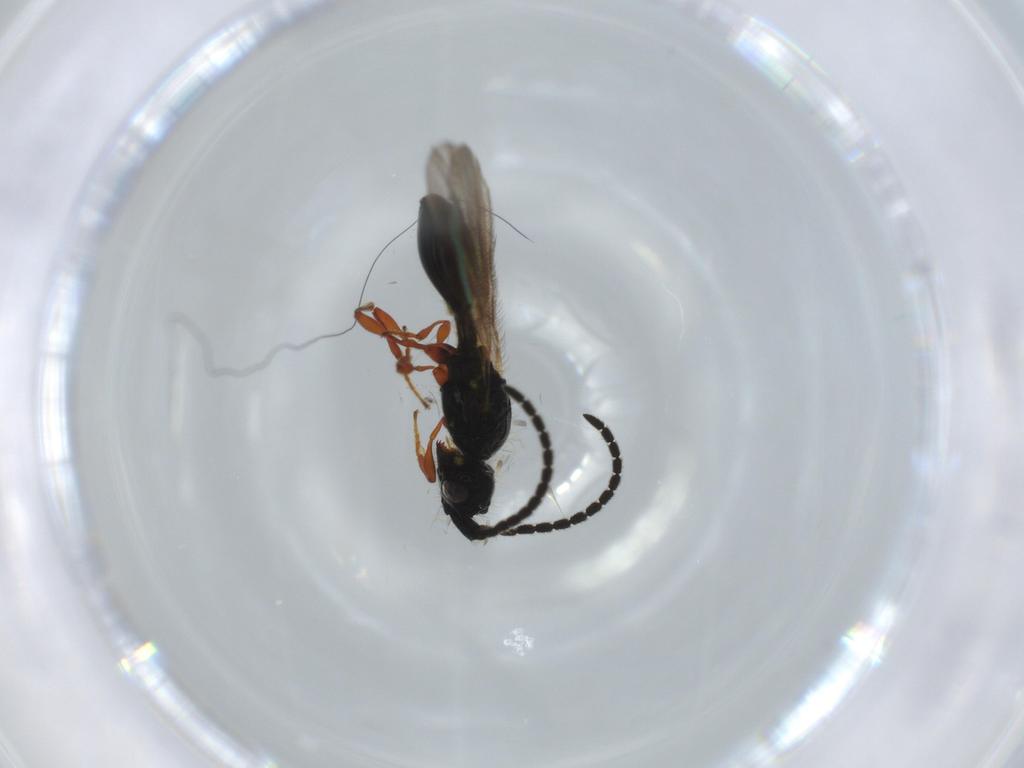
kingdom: Animalia
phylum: Arthropoda
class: Insecta
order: Hymenoptera
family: Diapriidae
